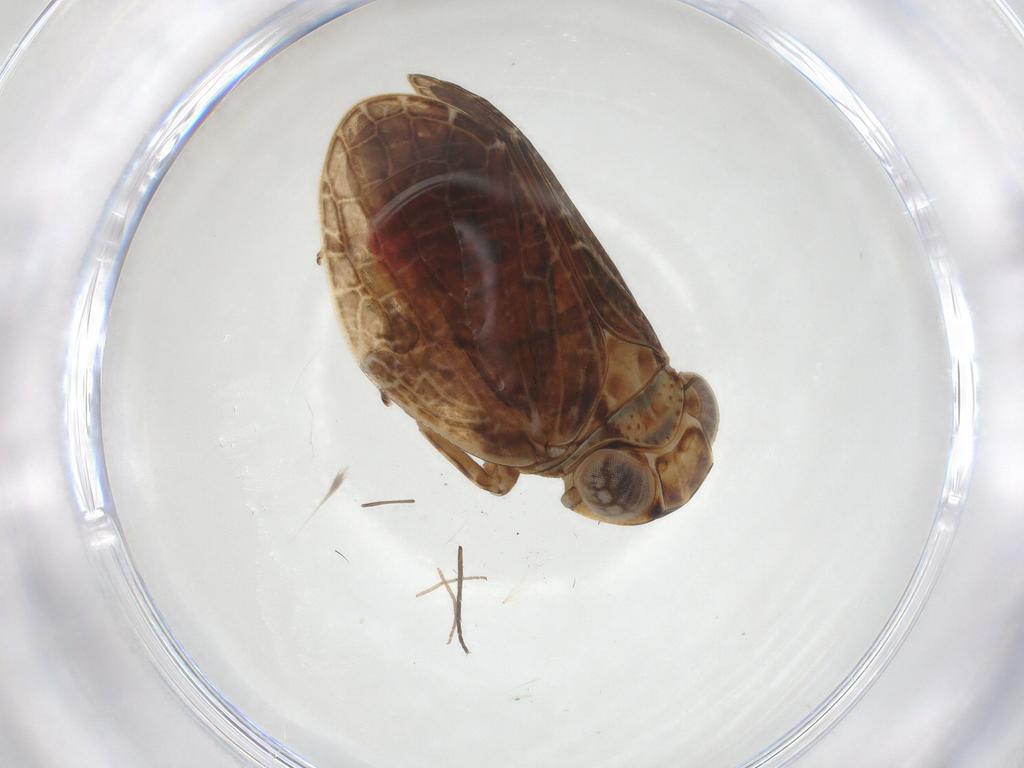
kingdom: Animalia
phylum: Arthropoda
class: Insecta
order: Hemiptera
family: Issidae
